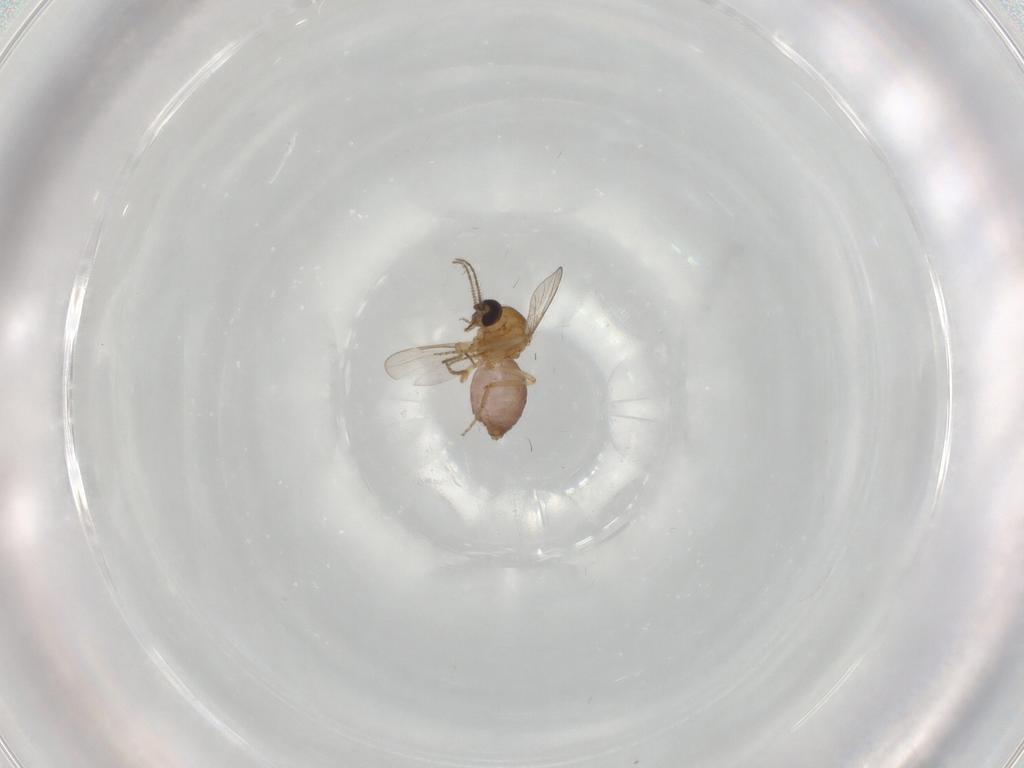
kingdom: Animalia
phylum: Arthropoda
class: Insecta
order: Diptera
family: Ceratopogonidae
